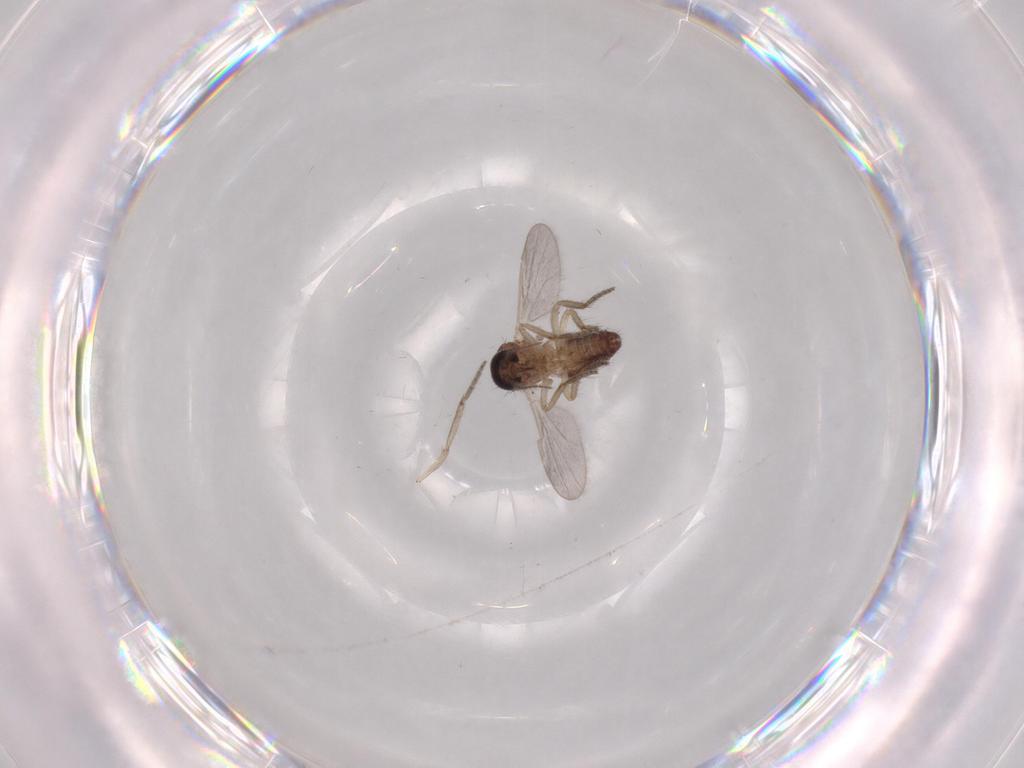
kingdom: Animalia
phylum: Arthropoda
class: Insecta
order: Diptera
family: Ceratopogonidae
